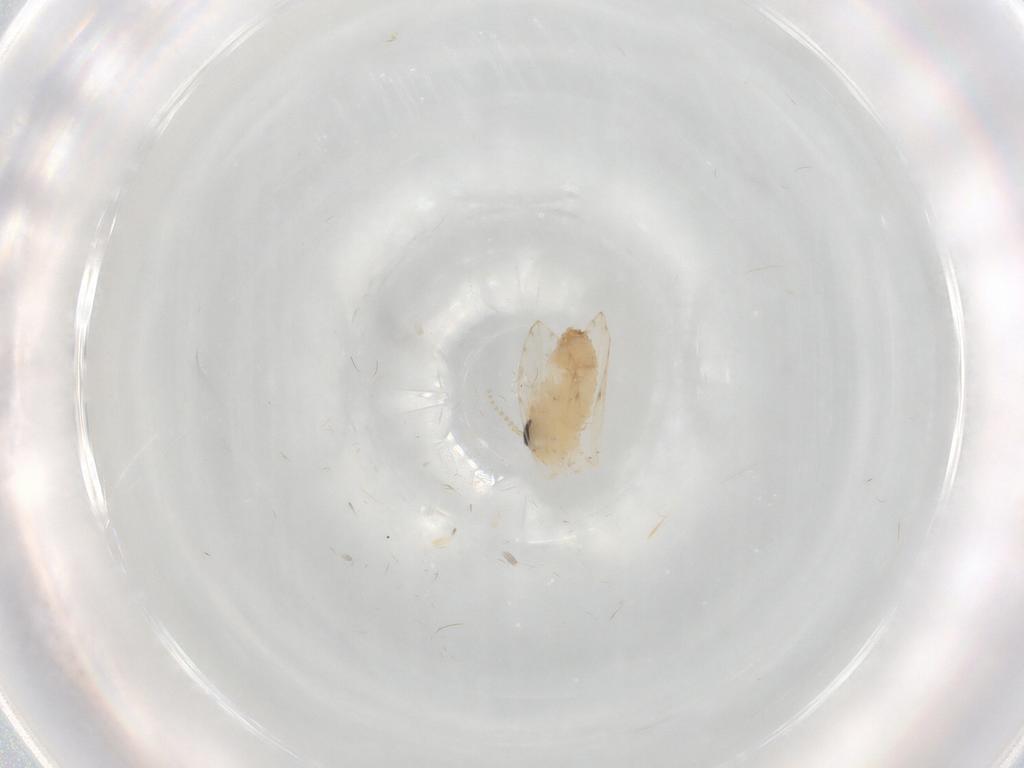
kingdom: Animalia
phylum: Arthropoda
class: Insecta
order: Diptera
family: Psychodidae
